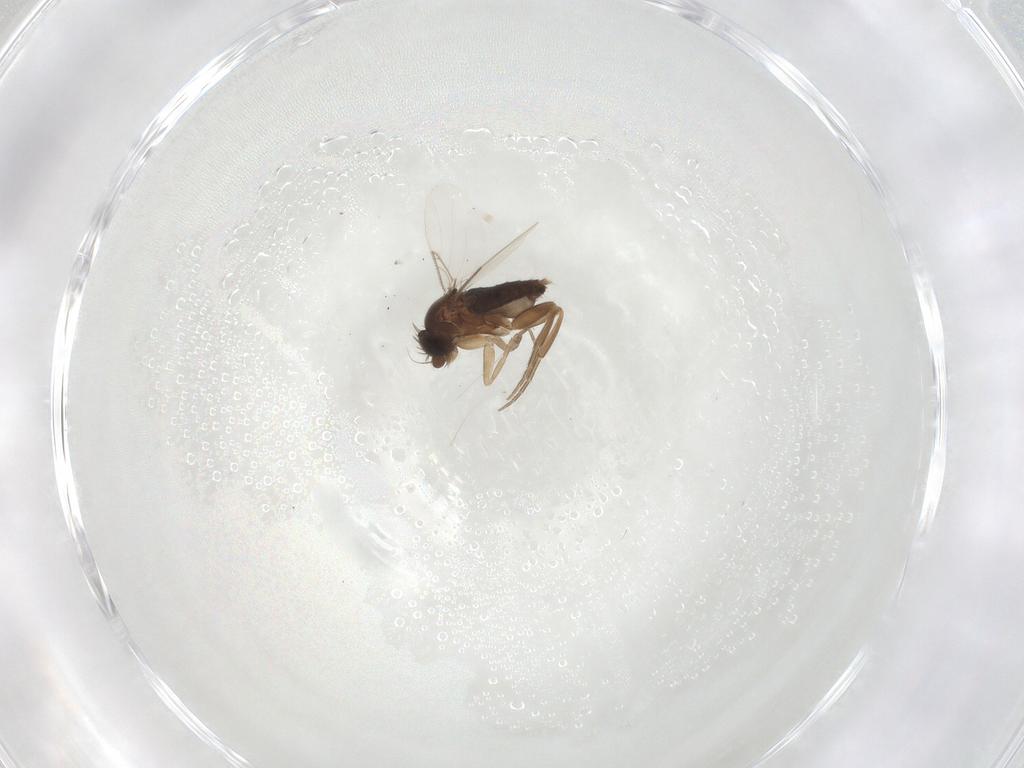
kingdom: Animalia
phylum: Arthropoda
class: Insecta
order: Diptera
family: Sciaridae
